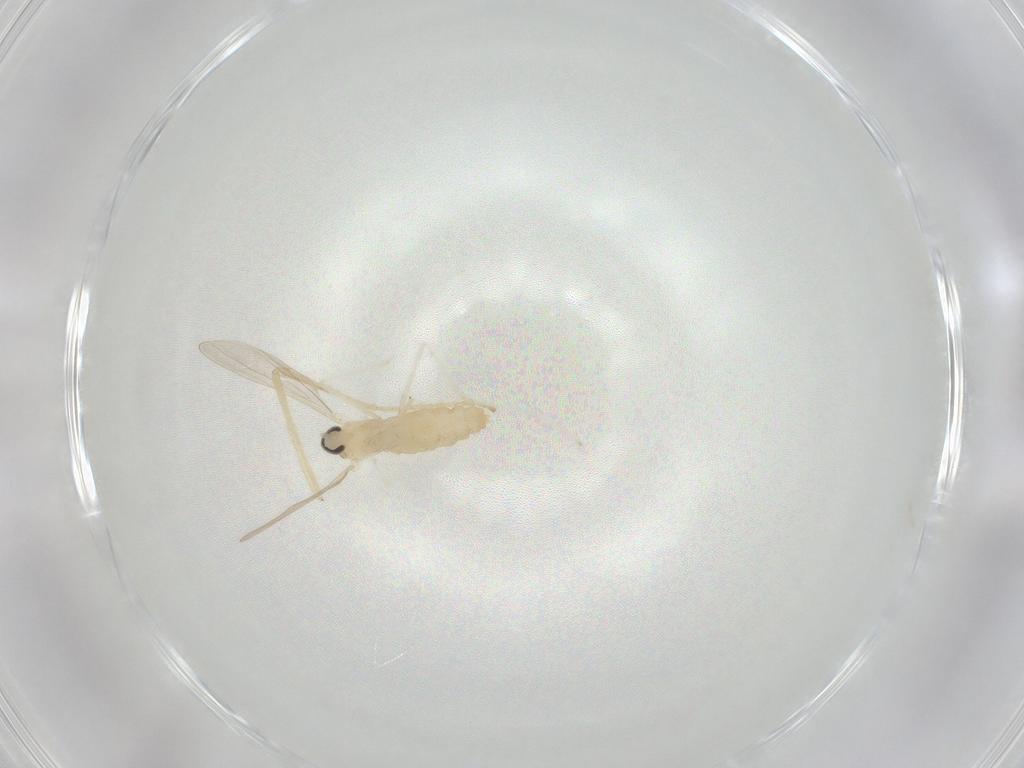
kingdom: Animalia
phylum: Arthropoda
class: Insecta
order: Diptera
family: Cecidomyiidae
